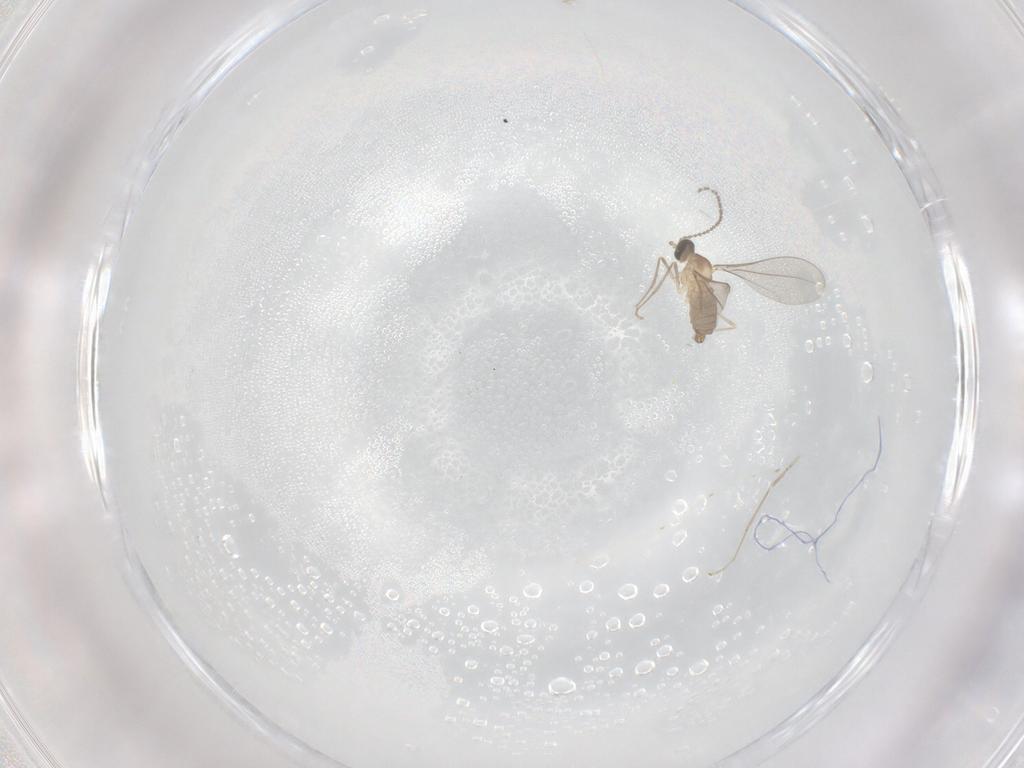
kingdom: Animalia
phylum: Arthropoda
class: Insecta
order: Diptera
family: Cecidomyiidae
